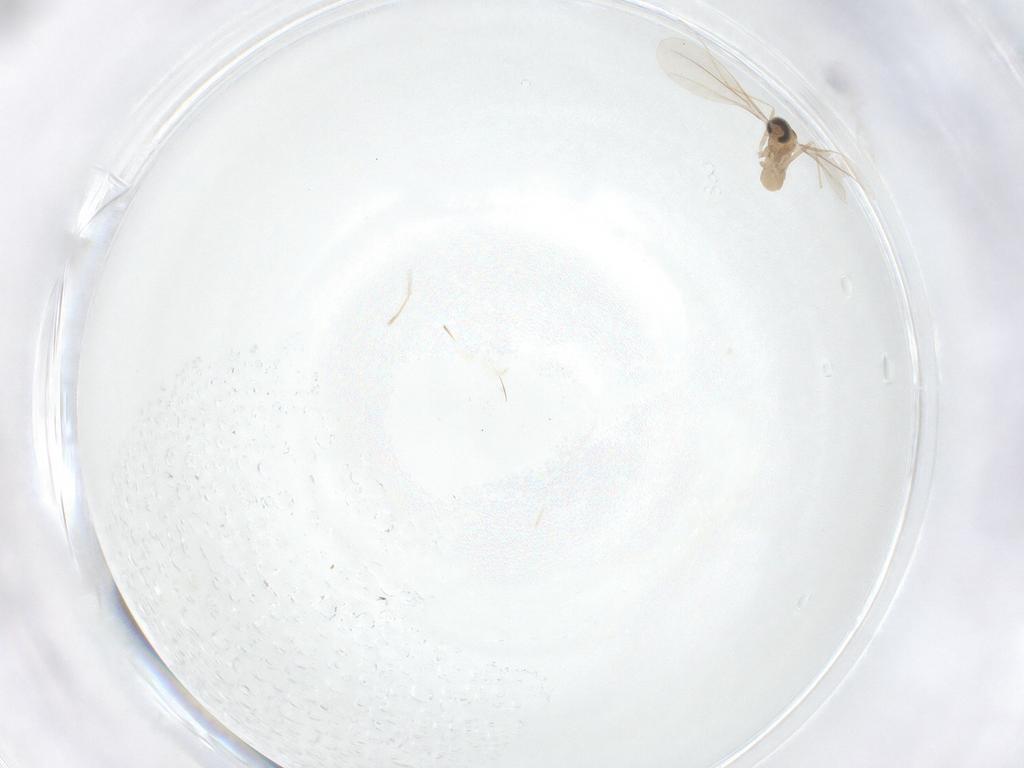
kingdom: Animalia
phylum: Arthropoda
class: Insecta
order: Diptera
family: Cecidomyiidae
